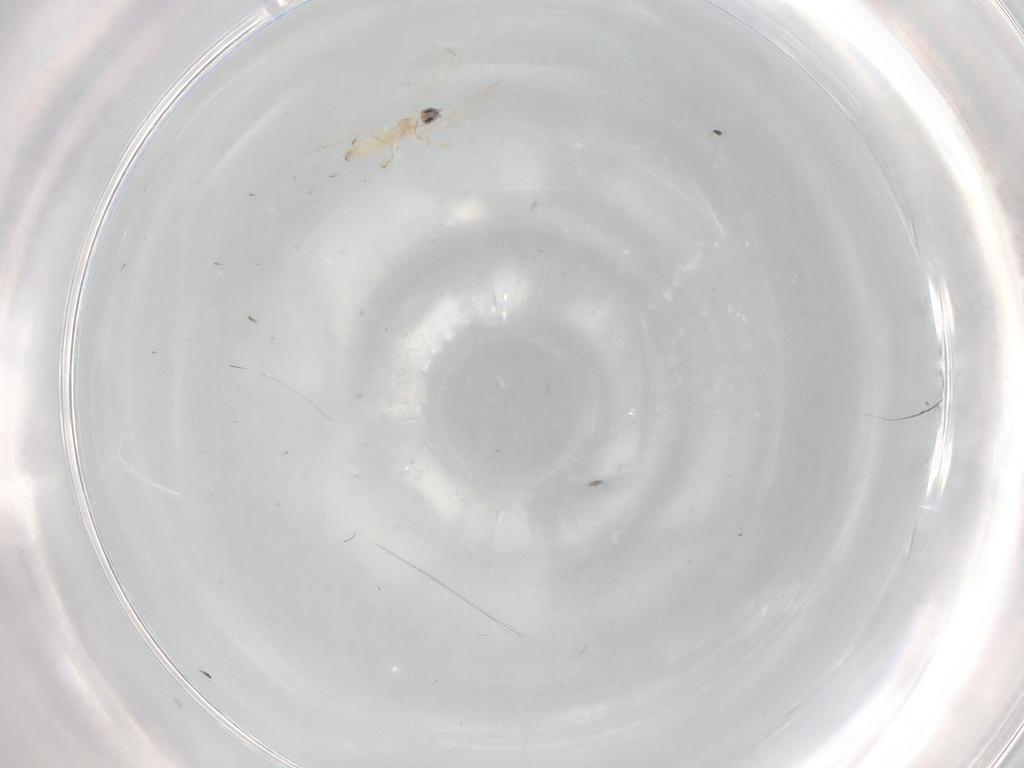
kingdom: Animalia
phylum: Arthropoda
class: Insecta
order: Diptera
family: Cecidomyiidae
